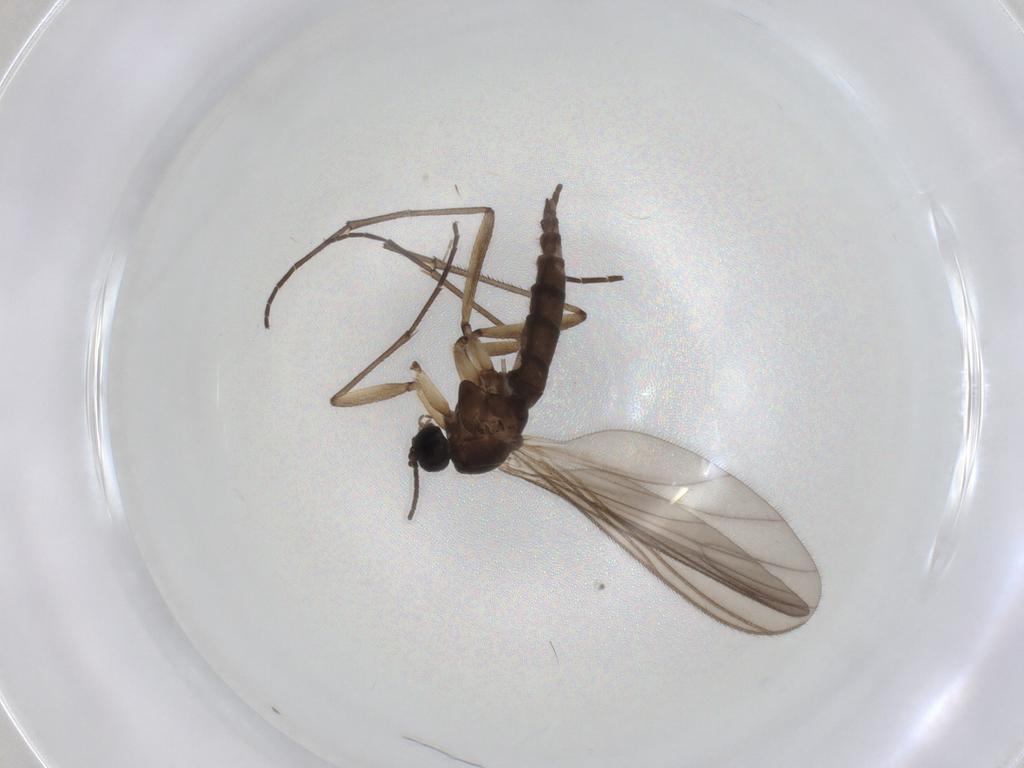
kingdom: Animalia
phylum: Arthropoda
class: Insecta
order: Diptera
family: Sciaridae
